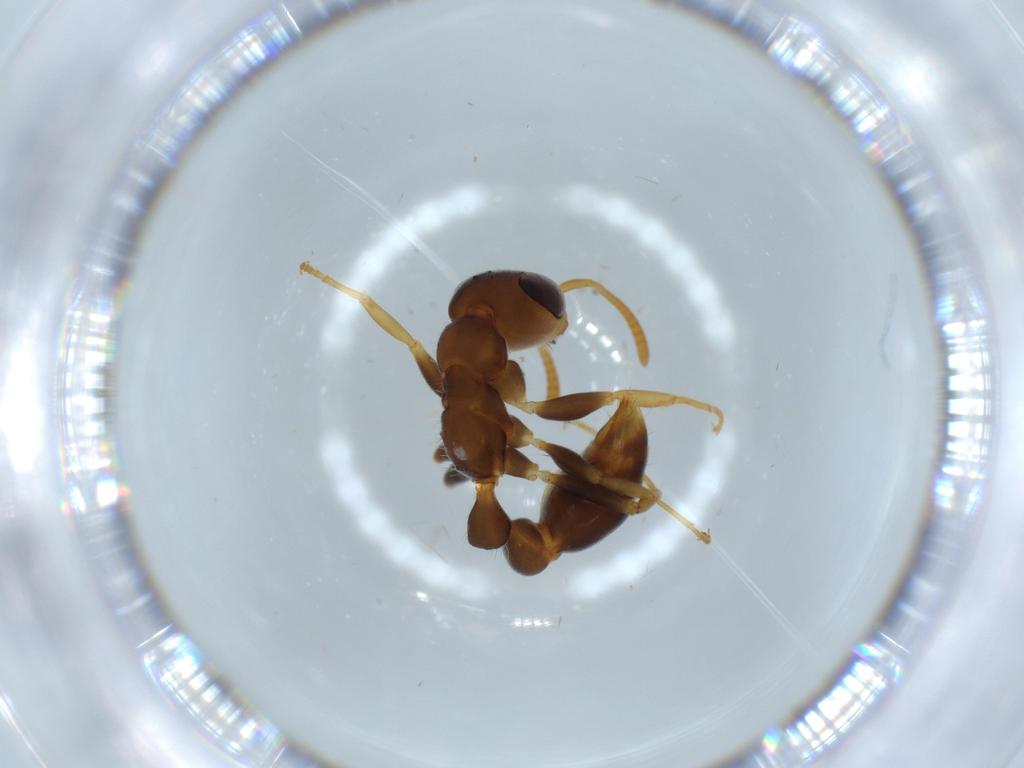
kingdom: Animalia
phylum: Arthropoda
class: Insecta
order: Hymenoptera
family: Formicidae
